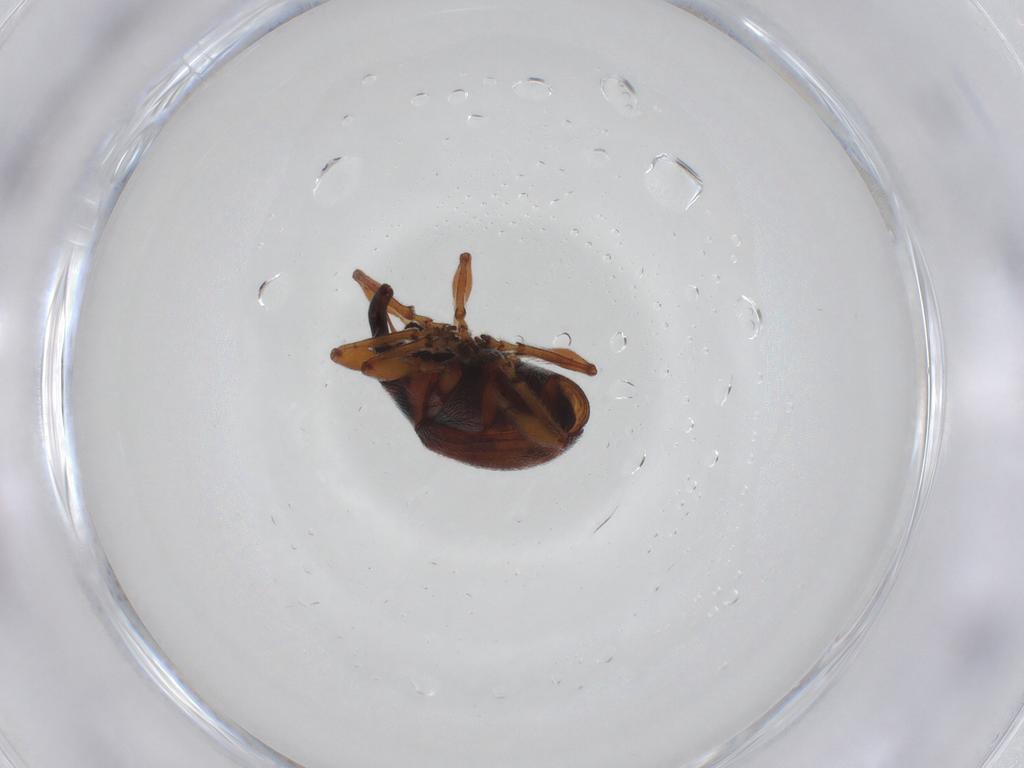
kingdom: Animalia
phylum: Arthropoda
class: Insecta
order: Coleoptera
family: Brentidae
